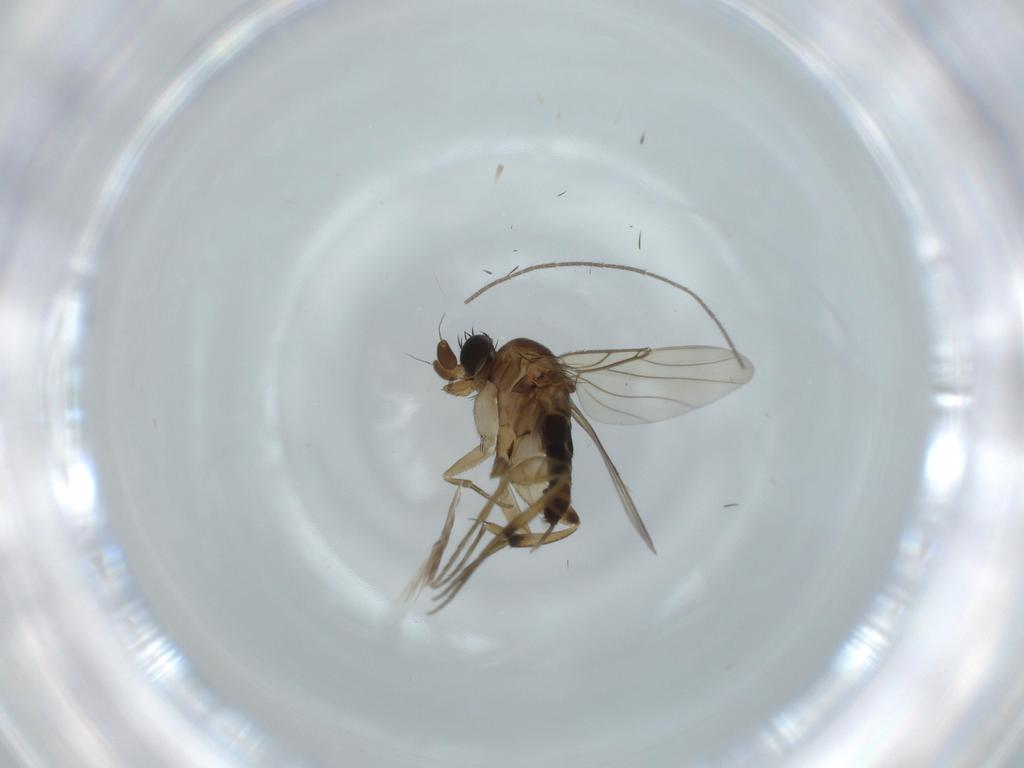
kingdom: Animalia
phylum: Arthropoda
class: Insecta
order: Diptera
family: Phoridae
